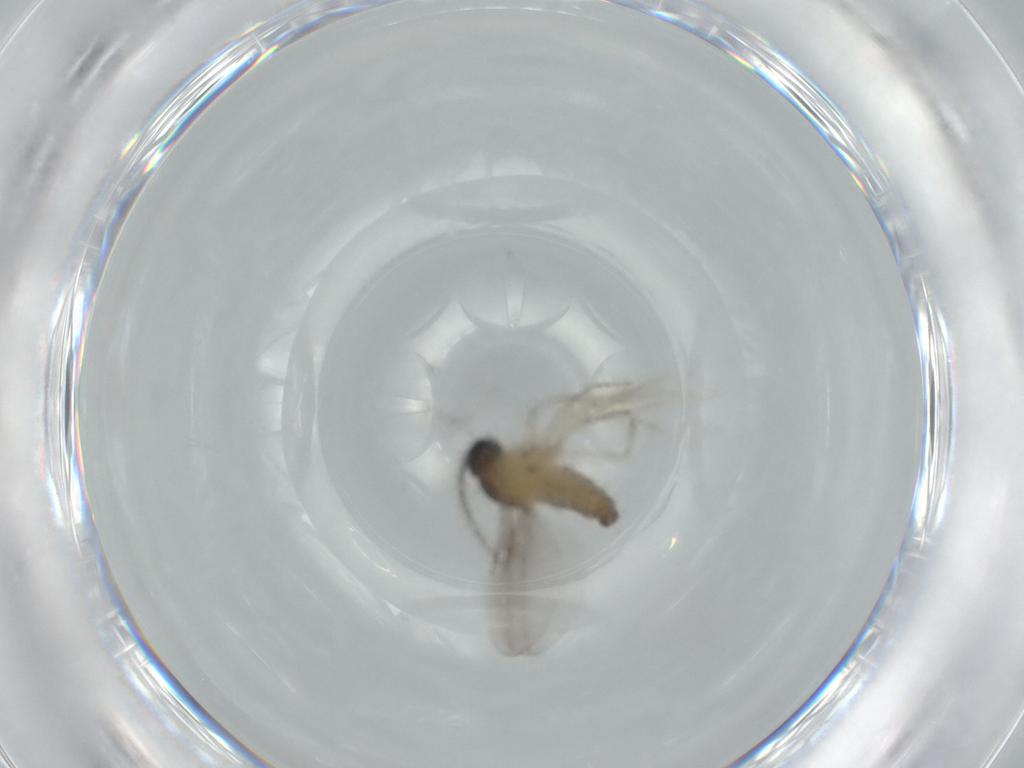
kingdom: Animalia
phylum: Arthropoda
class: Insecta
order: Diptera
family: Cecidomyiidae
